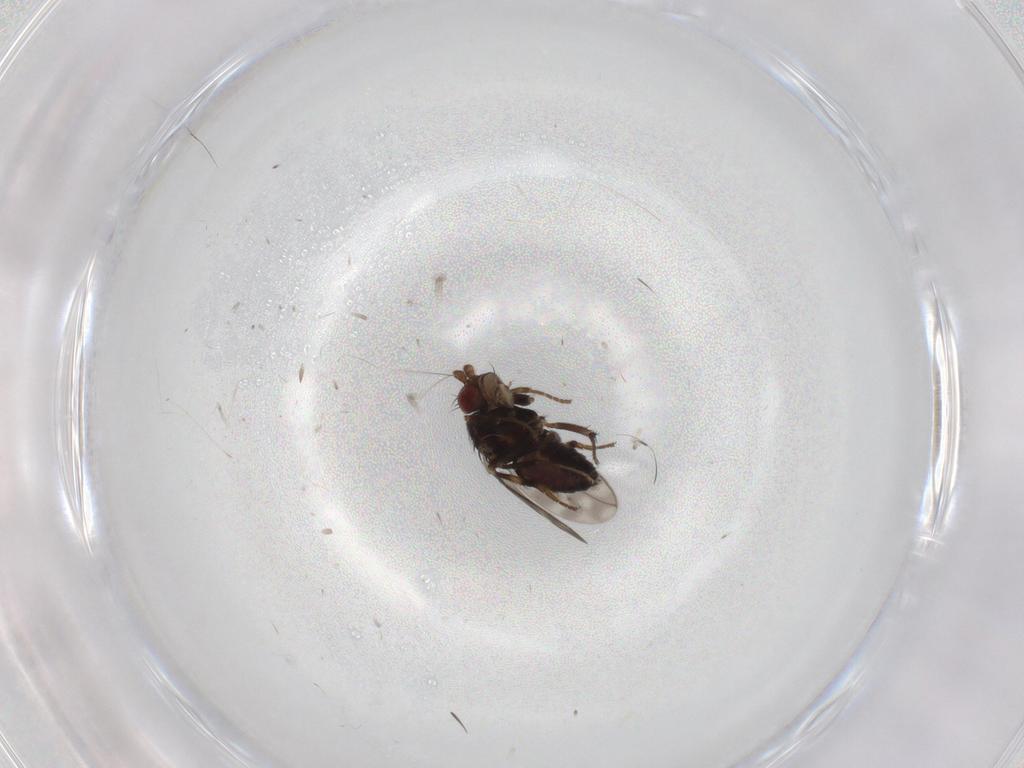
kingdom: Animalia
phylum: Arthropoda
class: Insecta
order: Diptera
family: Sphaeroceridae
